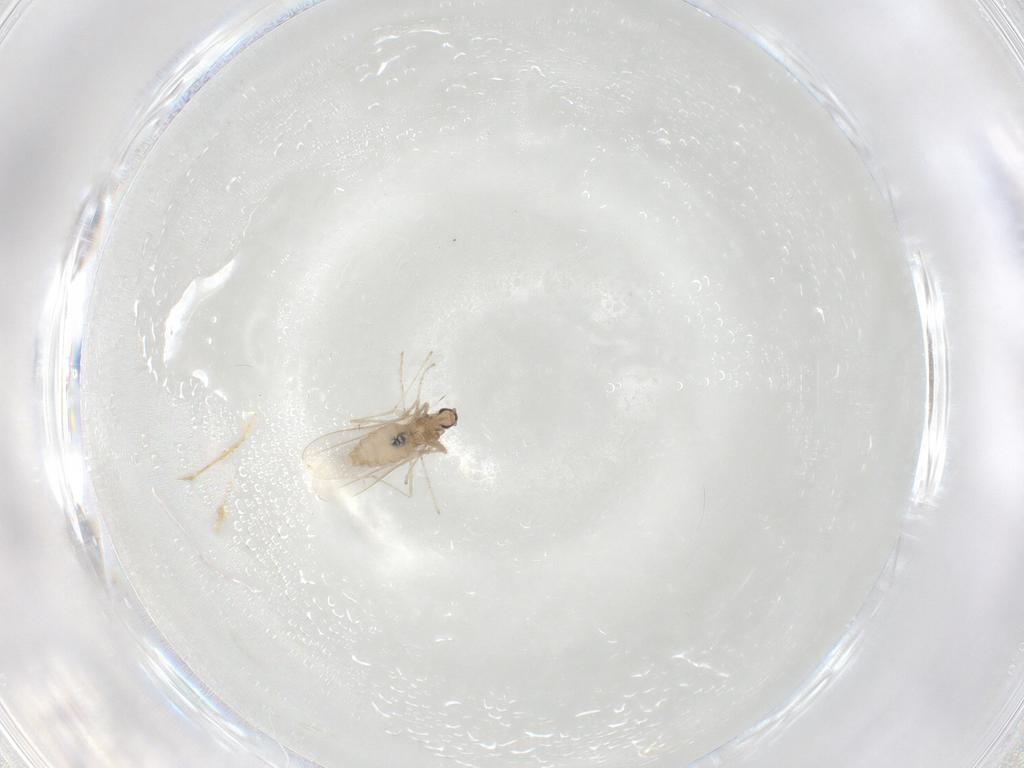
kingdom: Animalia
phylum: Arthropoda
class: Insecta
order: Diptera
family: Cecidomyiidae
